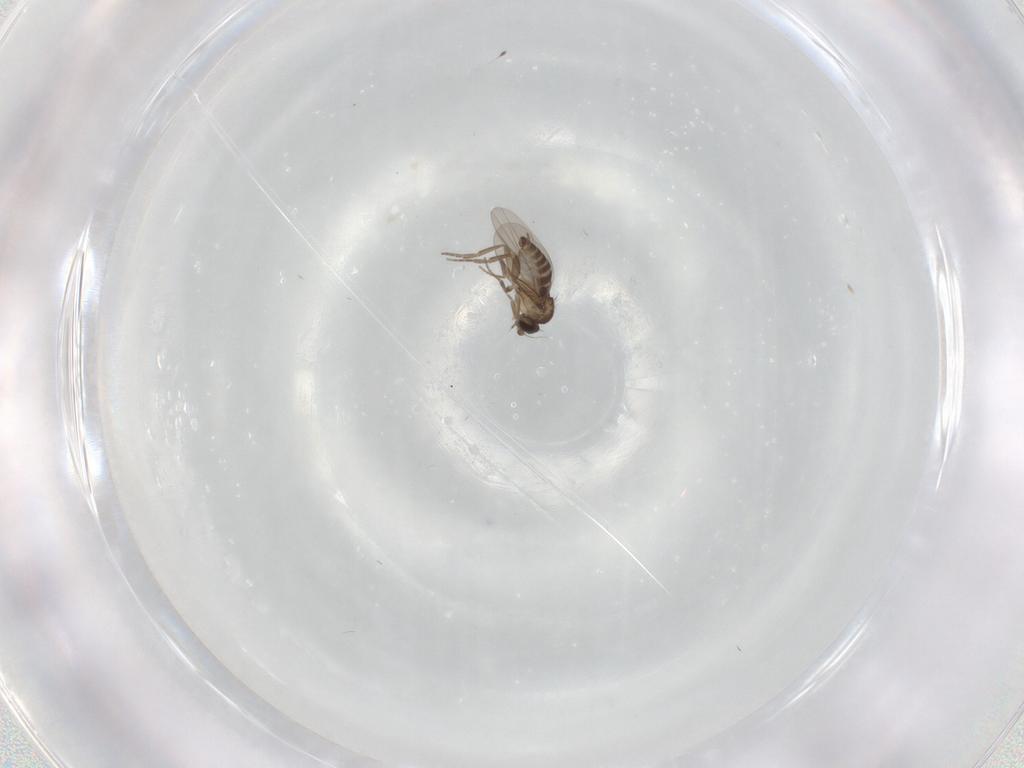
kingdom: Animalia
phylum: Arthropoda
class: Insecta
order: Diptera
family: Phoridae
